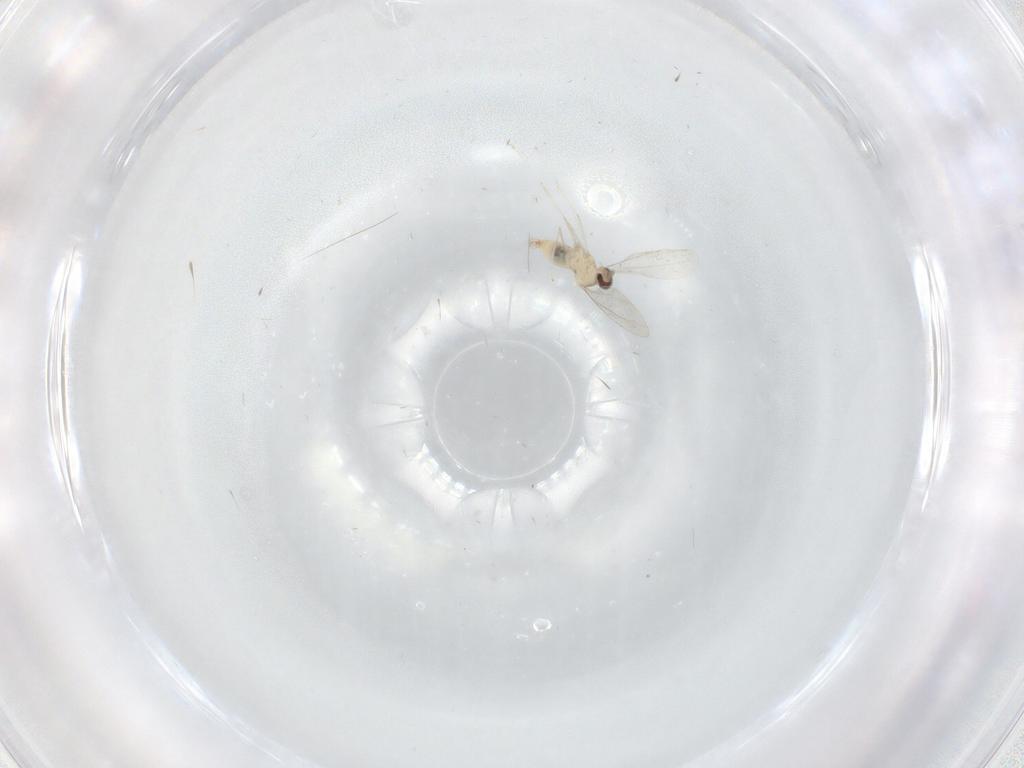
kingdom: Animalia
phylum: Arthropoda
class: Insecta
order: Diptera
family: Cecidomyiidae
